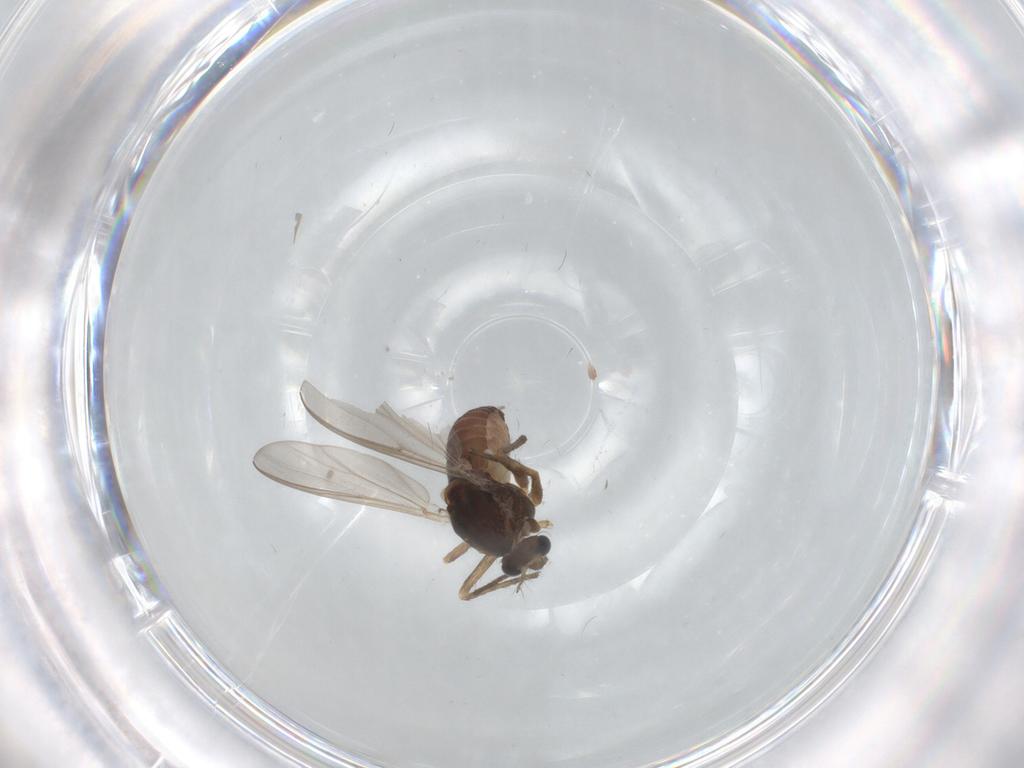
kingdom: Animalia
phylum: Arthropoda
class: Insecta
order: Diptera
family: Chironomidae
